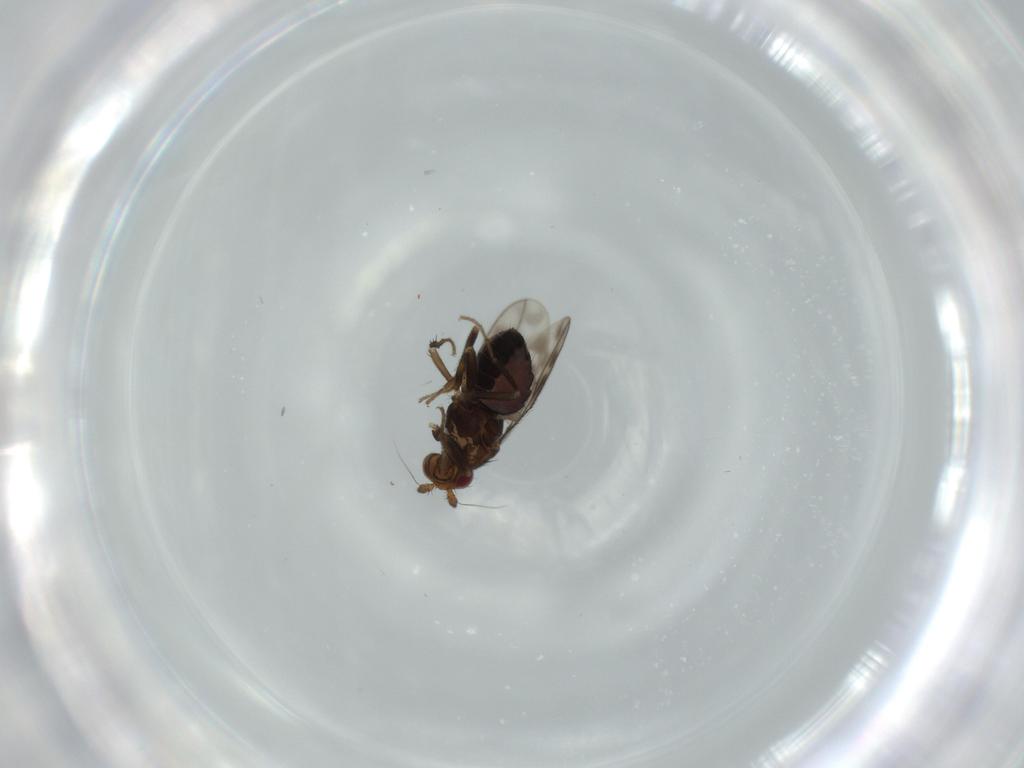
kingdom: Animalia
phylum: Arthropoda
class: Insecta
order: Diptera
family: Sphaeroceridae
